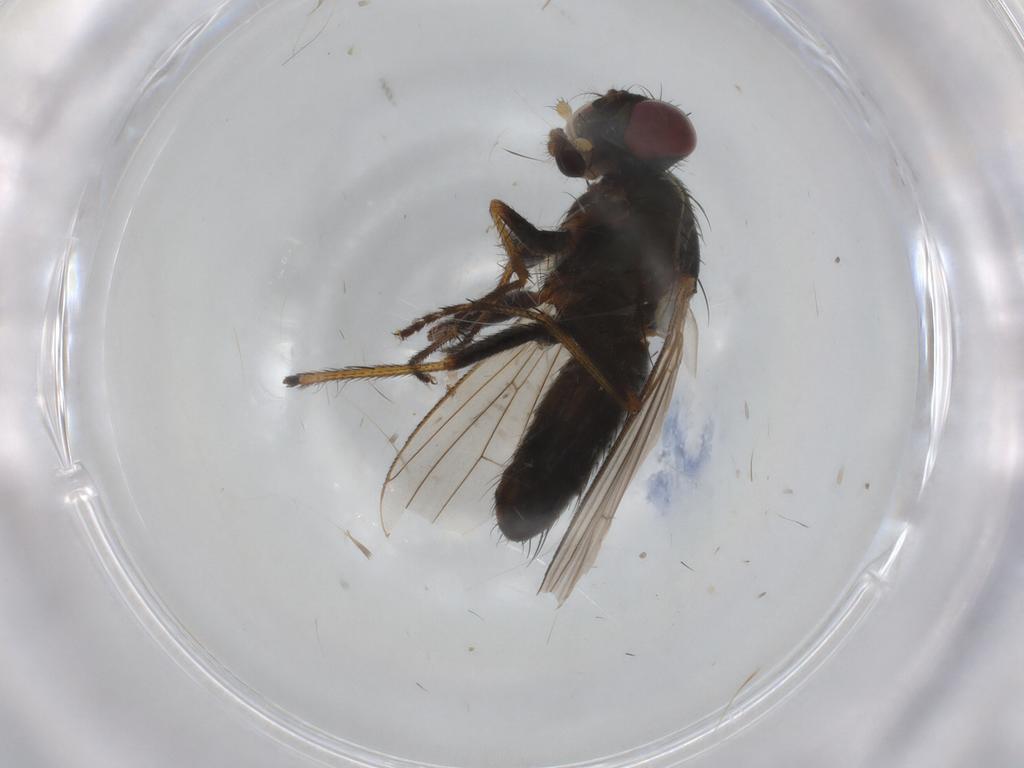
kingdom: Animalia
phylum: Arthropoda
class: Insecta
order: Diptera
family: Muscidae
